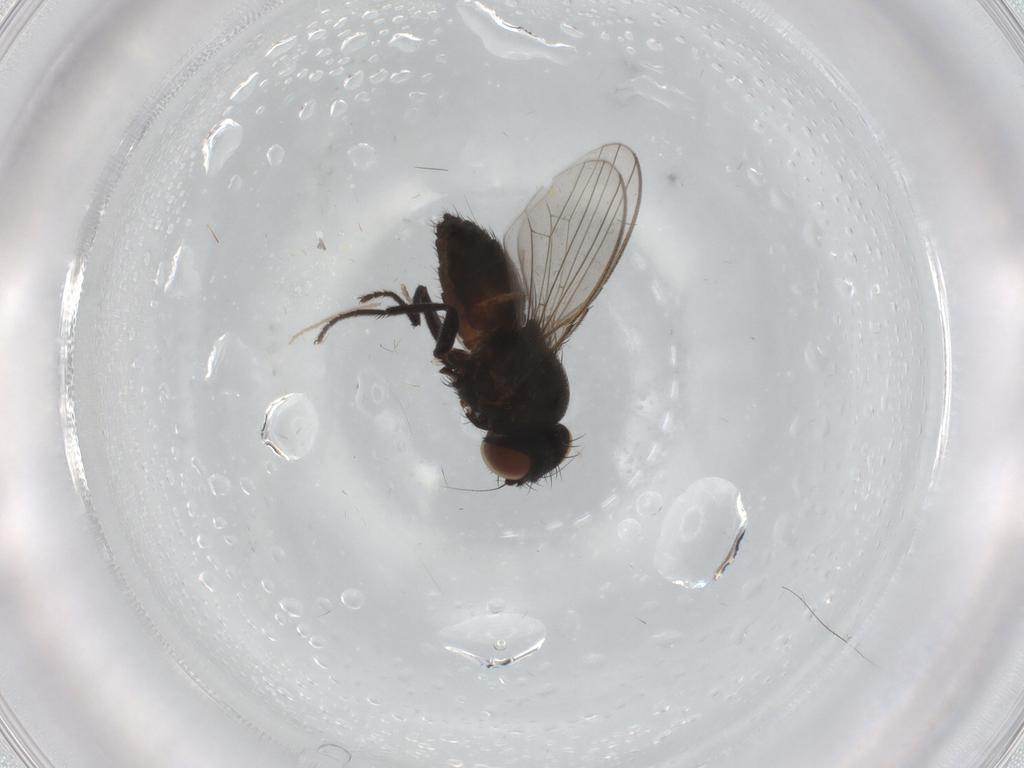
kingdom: Animalia
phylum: Arthropoda
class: Insecta
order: Diptera
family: Milichiidae
